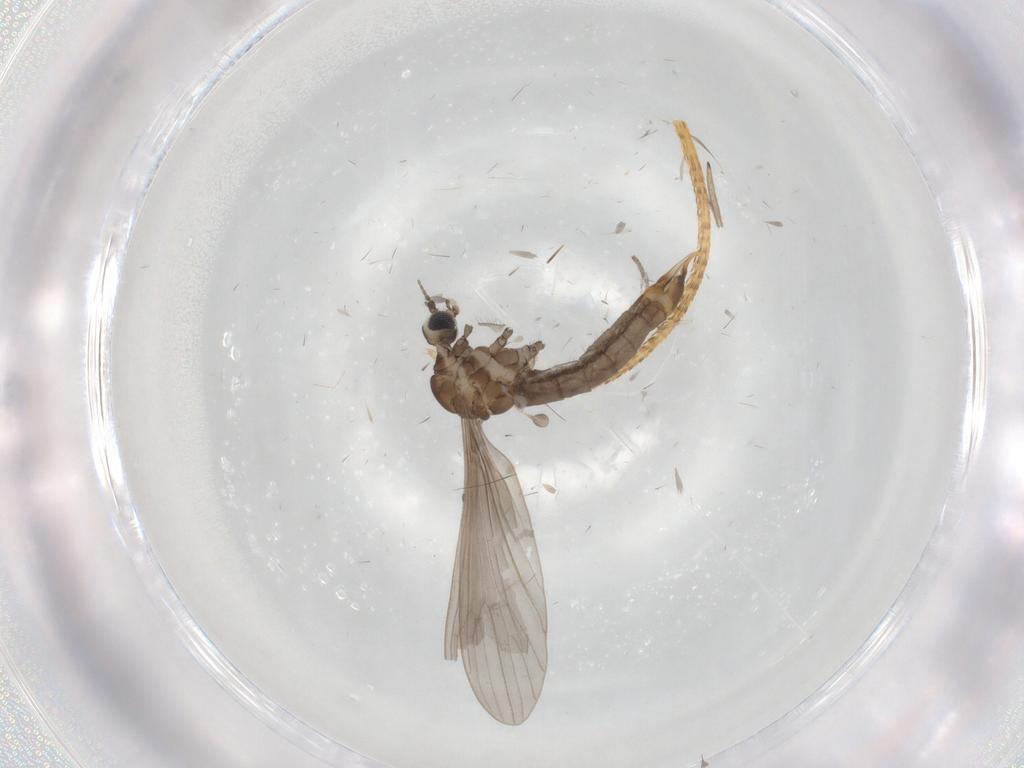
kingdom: Animalia
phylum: Arthropoda
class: Insecta
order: Diptera
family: Limoniidae
